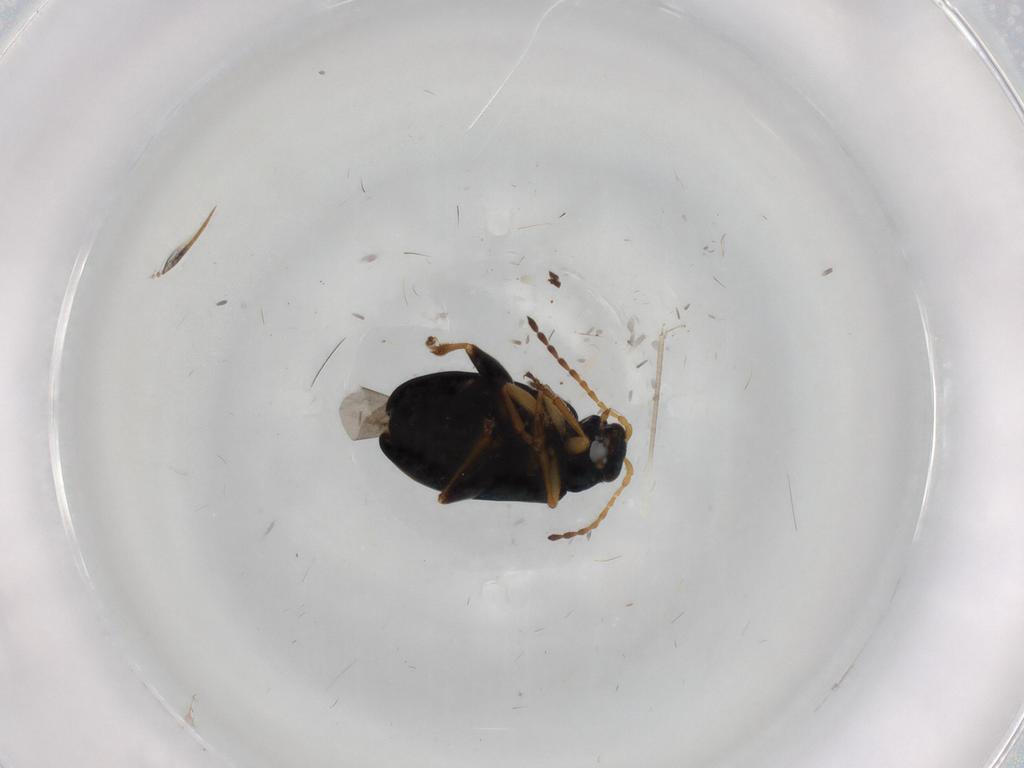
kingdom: Animalia
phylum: Arthropoda
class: Insecta
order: Coleoptera
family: Chrysomelidae
